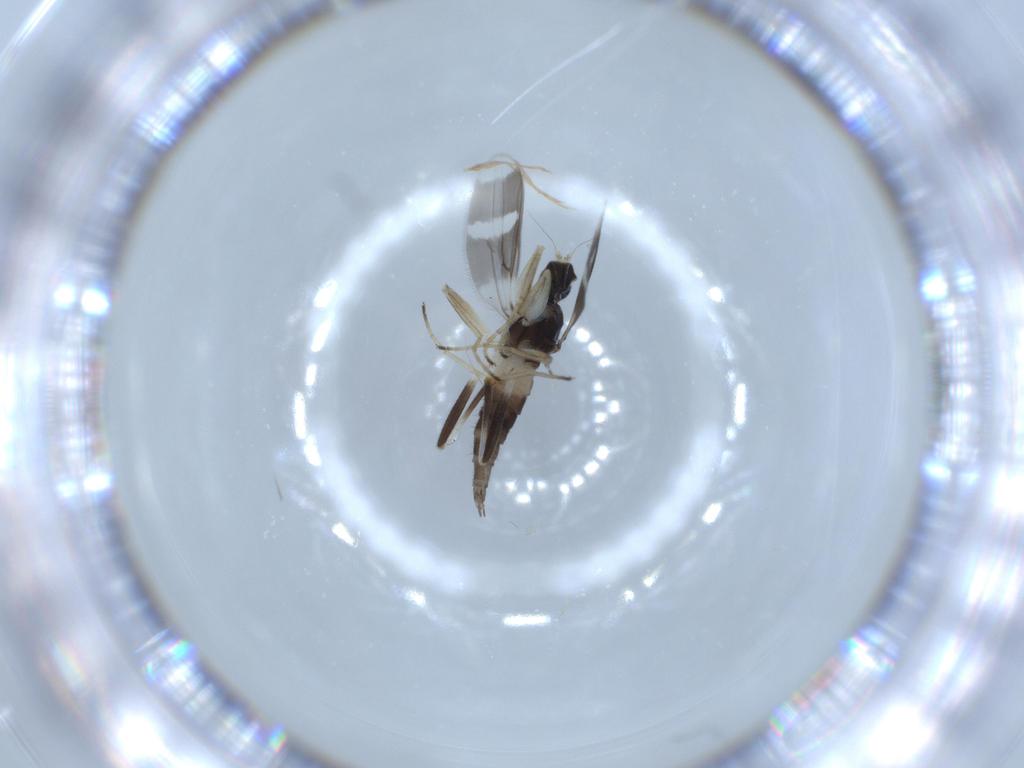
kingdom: Animalia
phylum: Arthropoda
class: Insecta
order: Diptera
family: Hybotidae
